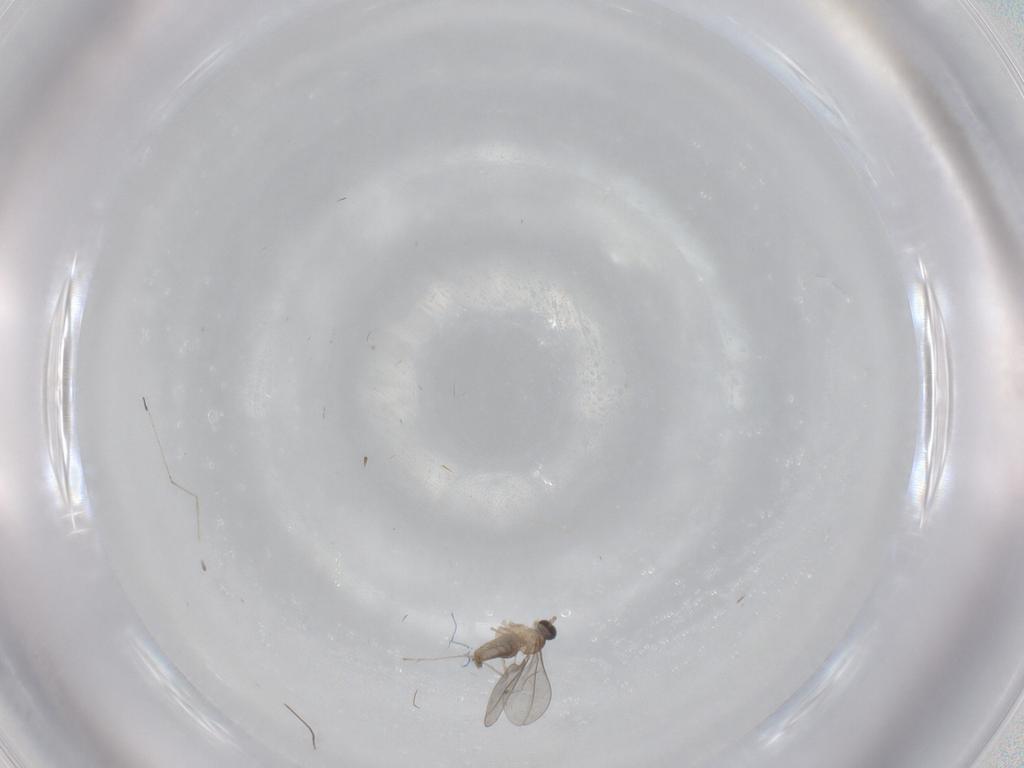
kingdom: Animalia
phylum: Arthropoda
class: Insecta
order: Diptera
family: Cecidomyiidae
